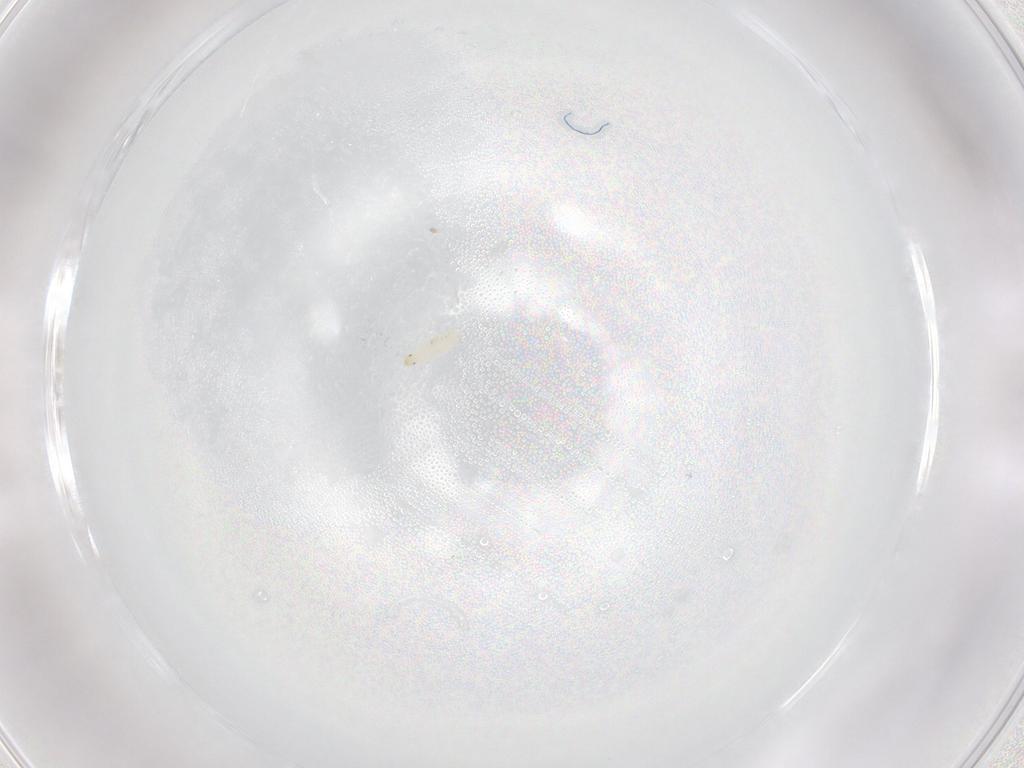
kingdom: Animalia
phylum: Arthropoda
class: Insecta
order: Diptera
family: Stratiomyidae
